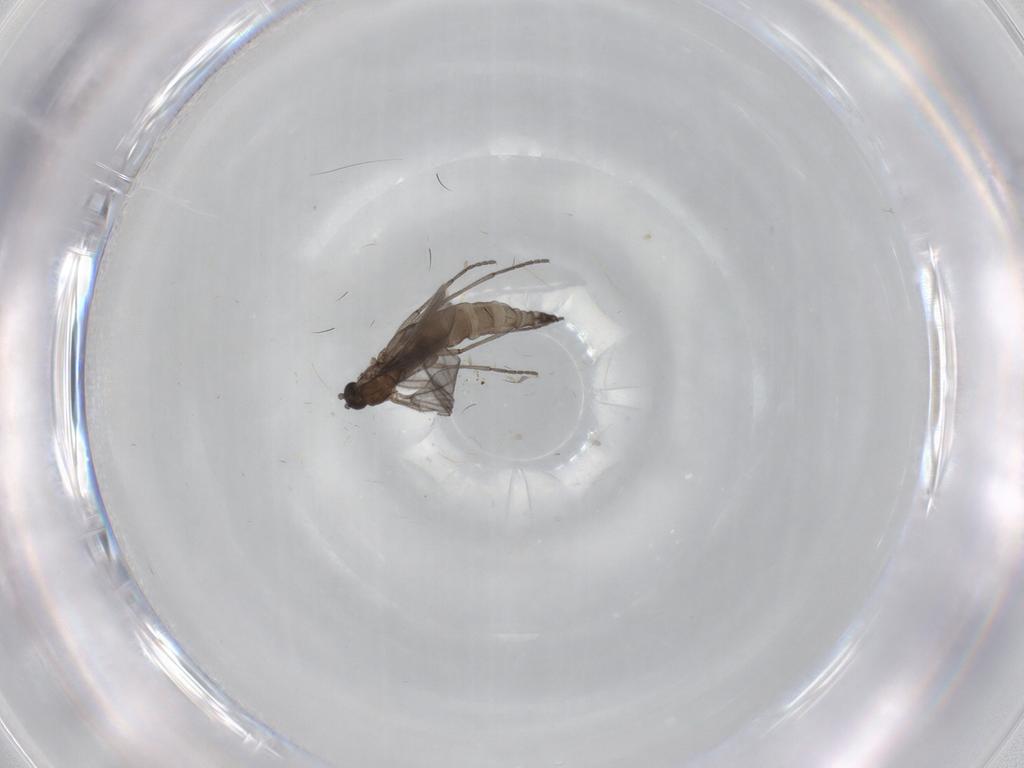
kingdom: Animalia
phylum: Arthropoda
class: Insecta
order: Diptera
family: Sciaridae
